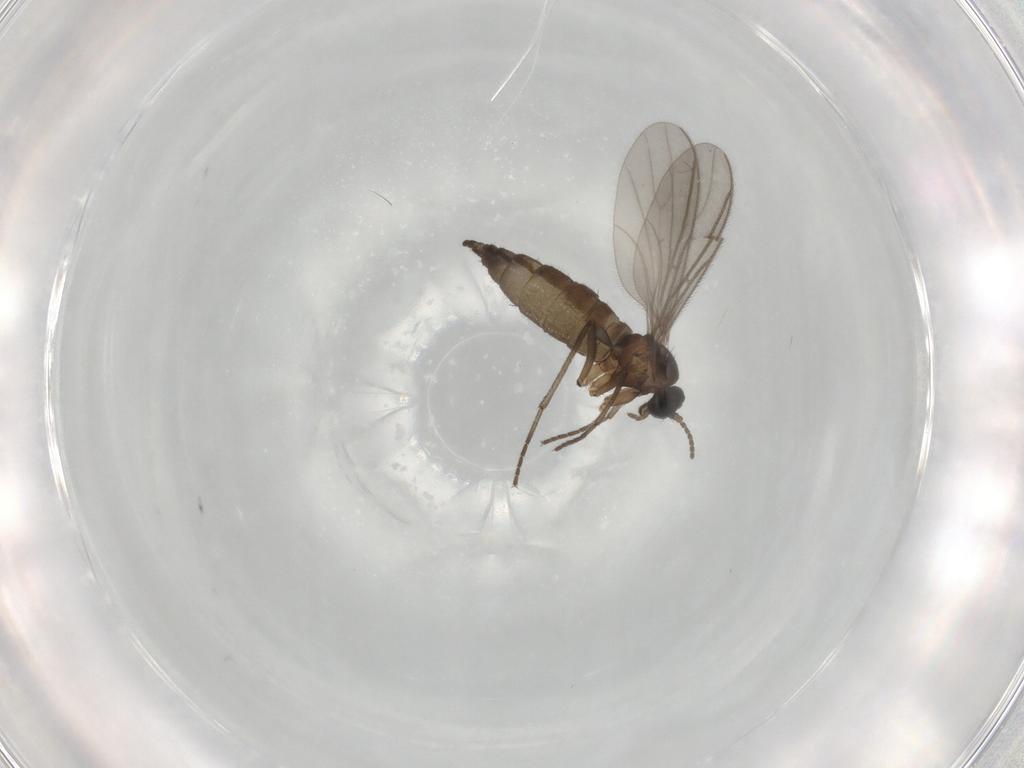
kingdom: Animalia
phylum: Arthropoda
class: Insecta
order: Diptera
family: Sciaridae
